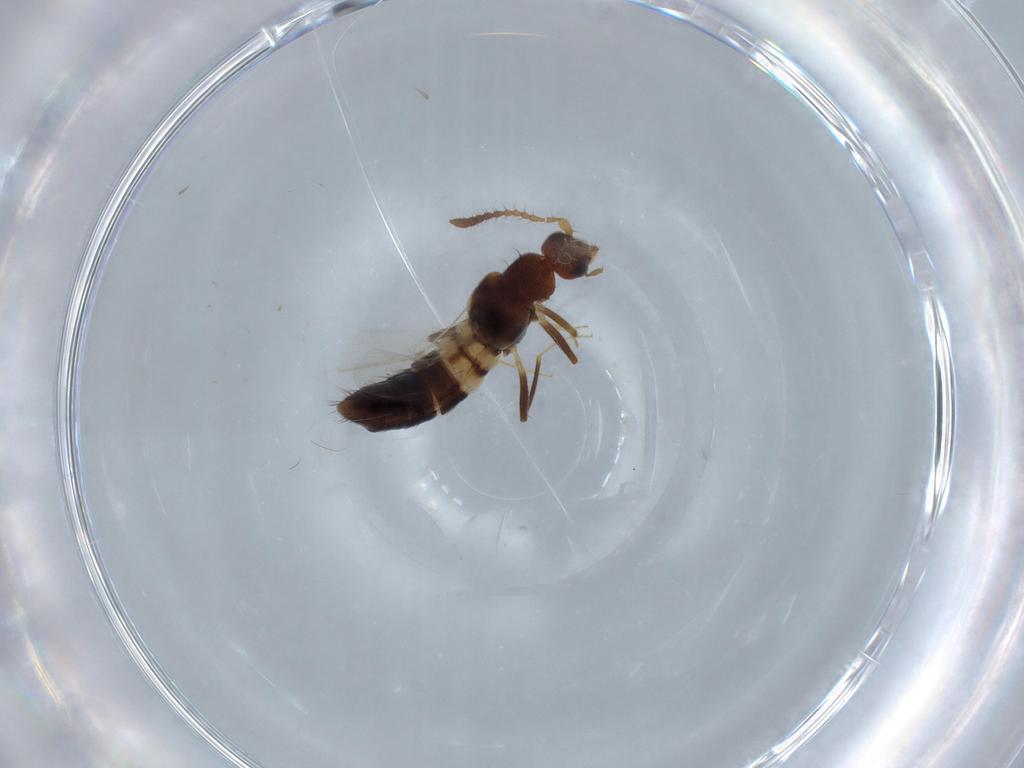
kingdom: Animalia
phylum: Arthropoda
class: Insecta
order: Coleoptera
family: Staphylinidae
